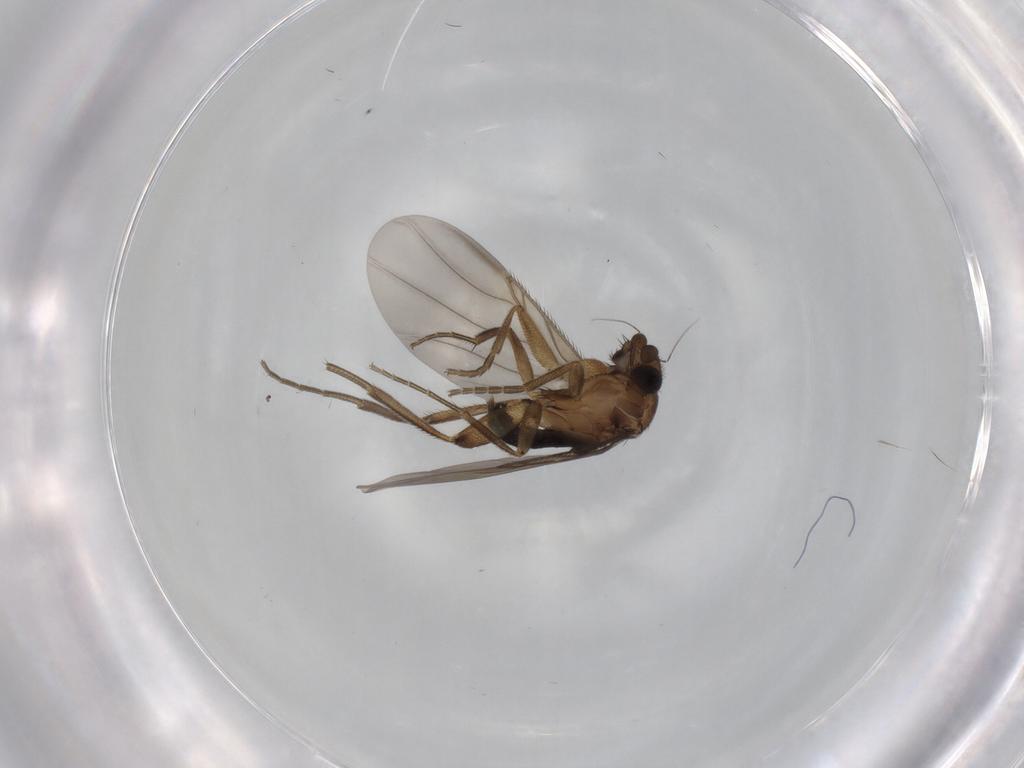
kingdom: Animalia
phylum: Arthropoda
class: Insecta
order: Diptera
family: Phoridae
